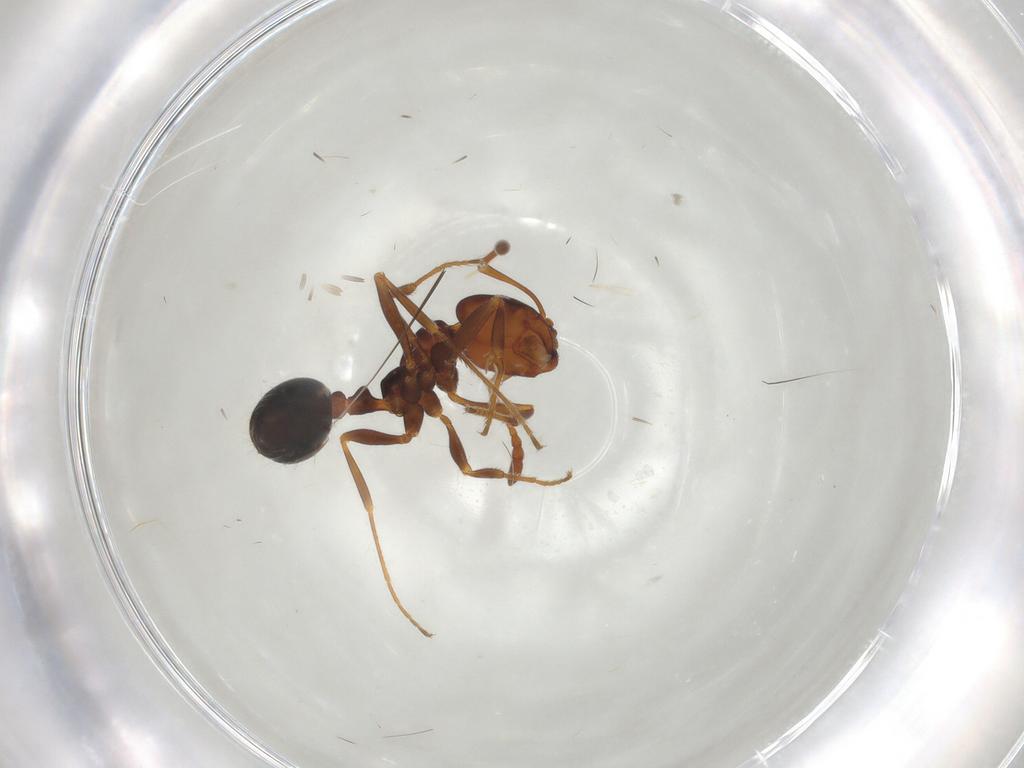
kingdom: Animalia
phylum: Arthropoda
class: Insecta
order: Hymenoptera
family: Formicidae
